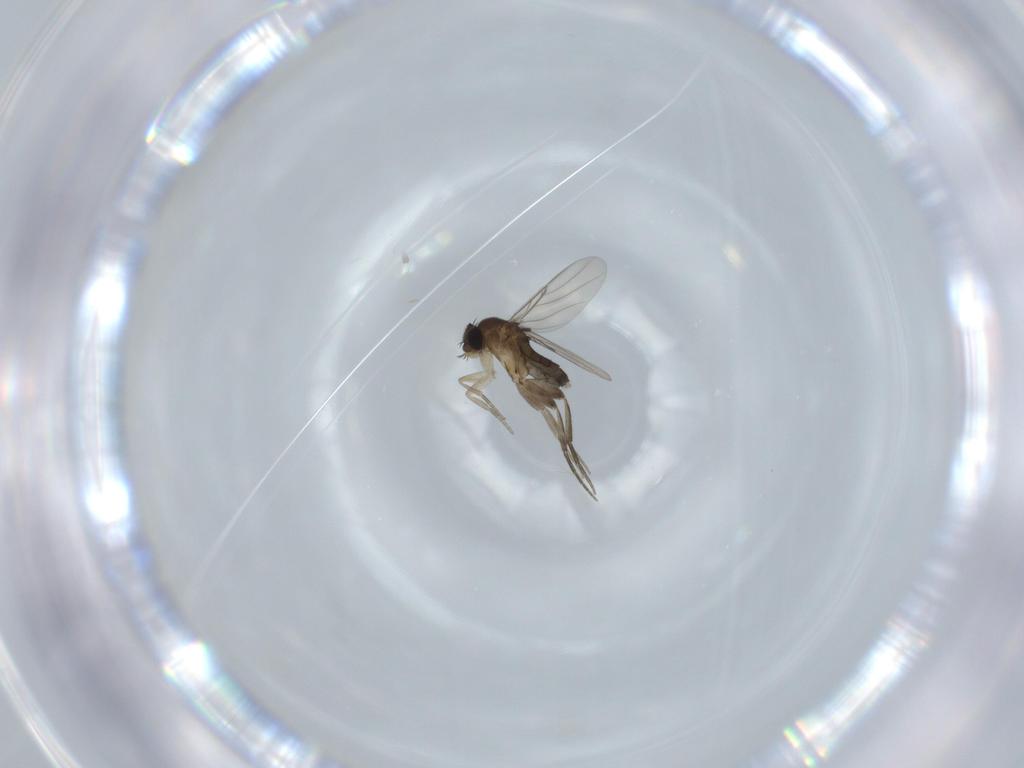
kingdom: Animalia
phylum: Arthropoda
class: Insecta
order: Diptera
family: Phoridae
